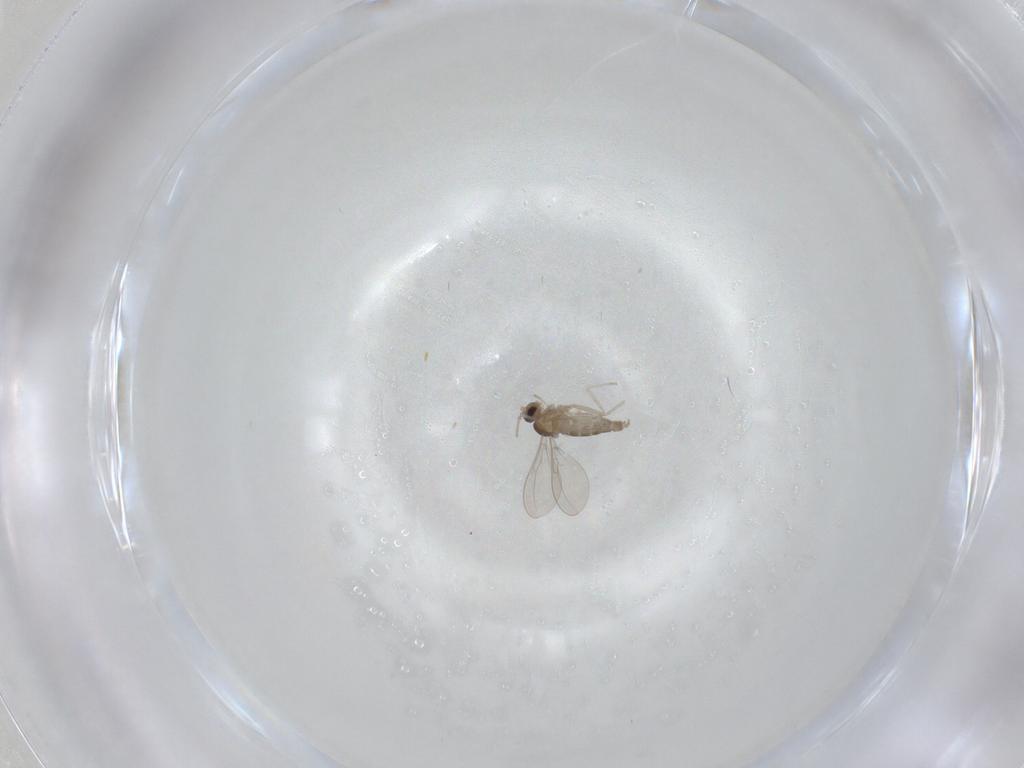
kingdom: Animalia
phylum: Arthropoda
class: Insecta
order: Diptera
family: Cecidomyiidae
